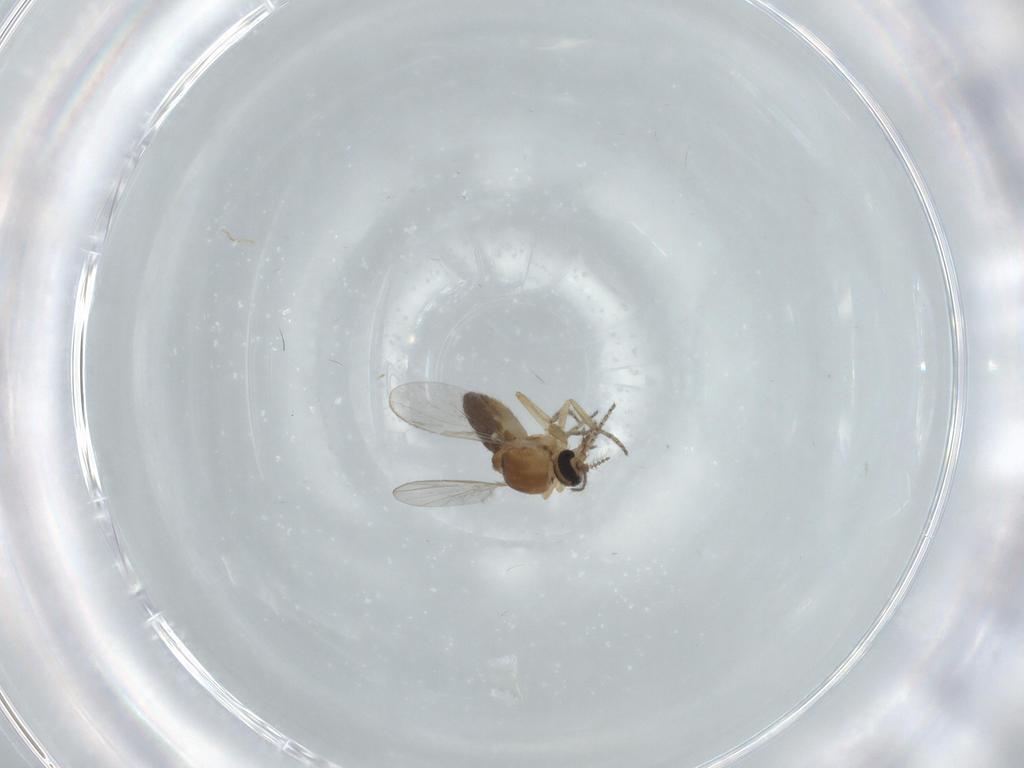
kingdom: Animalia
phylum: Arthropoda
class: Insecta
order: Diptera
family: Ceratopogonidae
